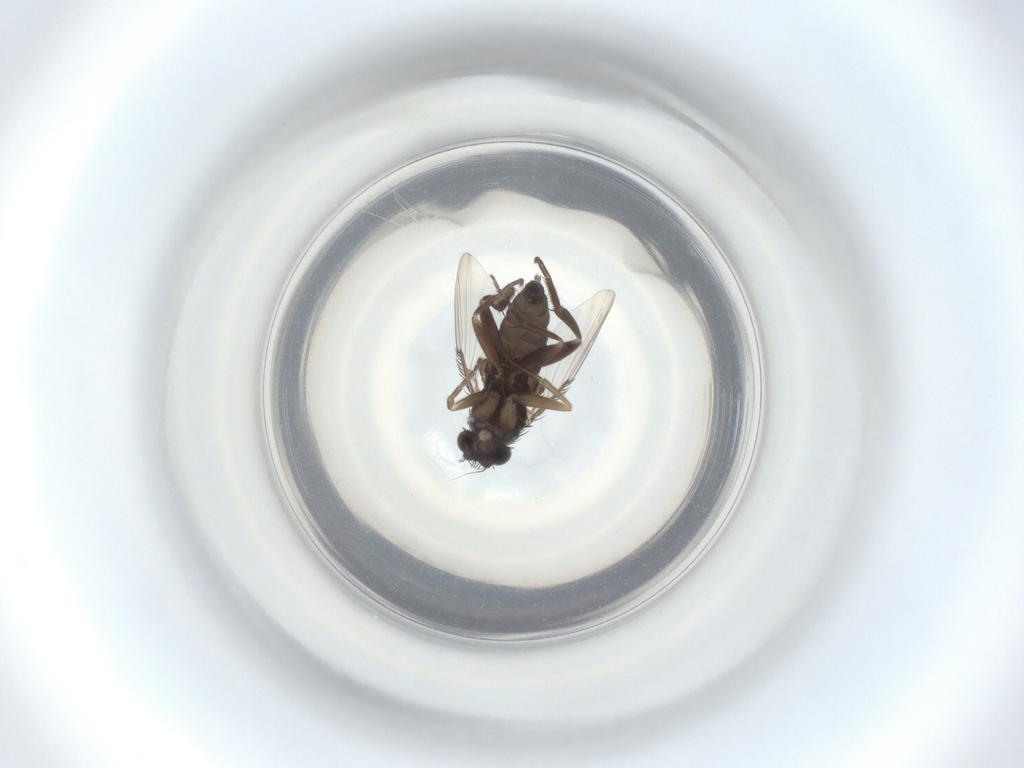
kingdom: Animalia
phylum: Arthropoda
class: Insecta
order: Diptera
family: Phoridae
